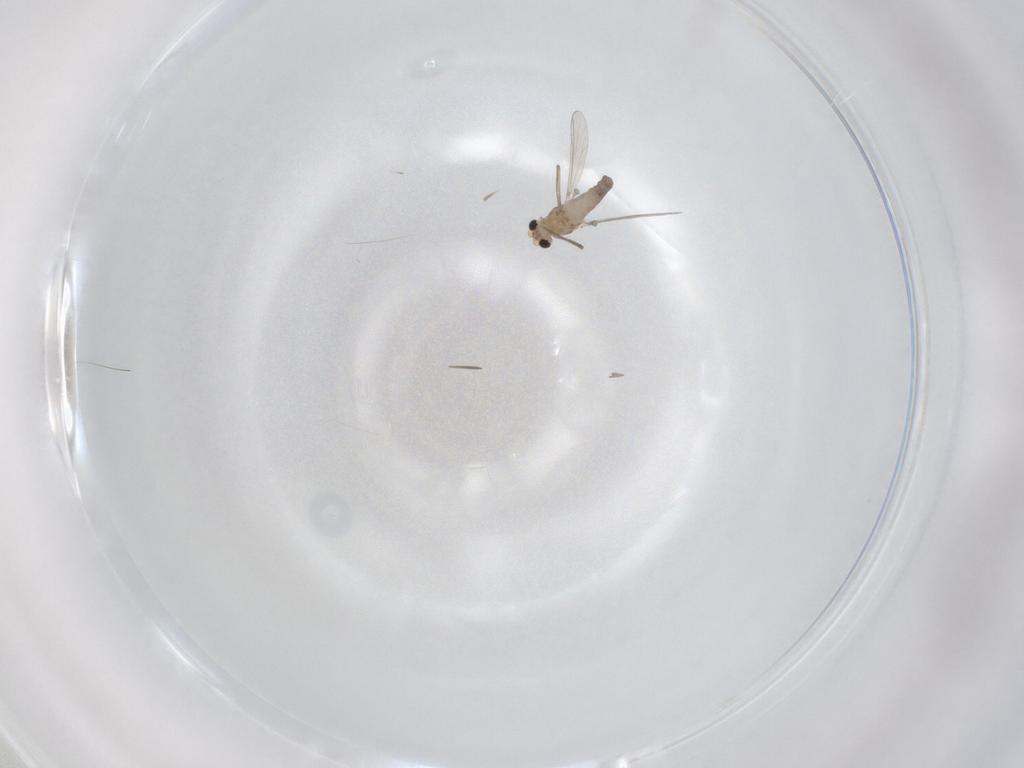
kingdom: Animalia
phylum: Arthropoda
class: Insecta
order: Diptera
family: Chironomidae
